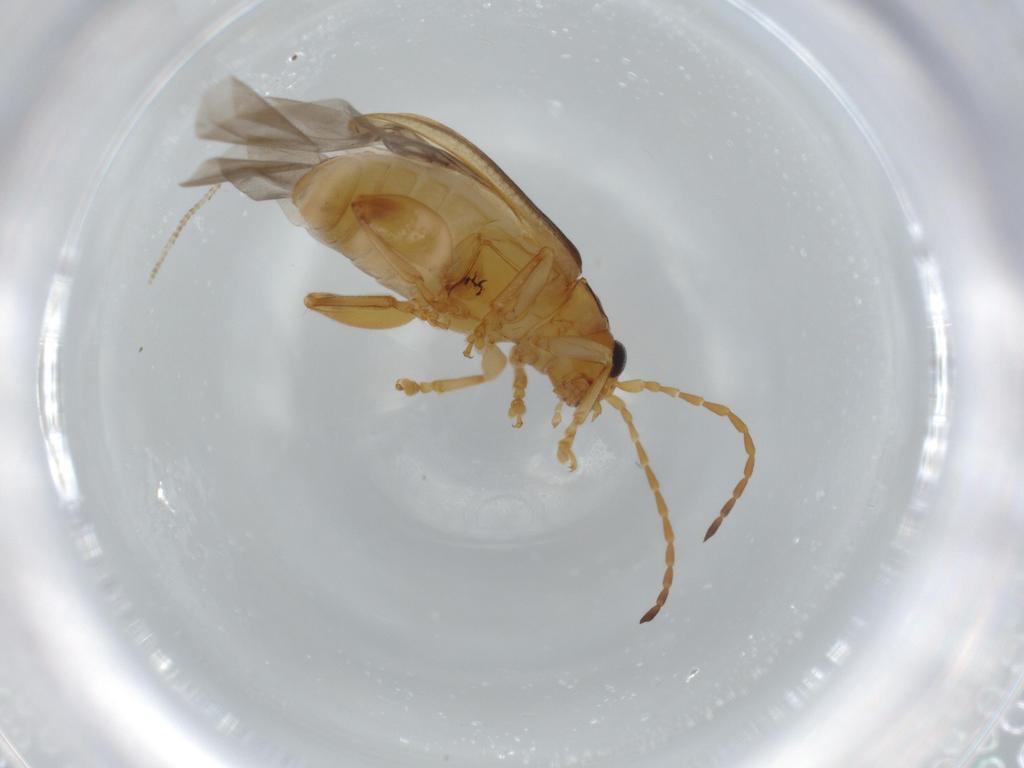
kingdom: Animalia
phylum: Arthropoda
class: Insecta
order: Coleoptera
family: Chrysomelidae
